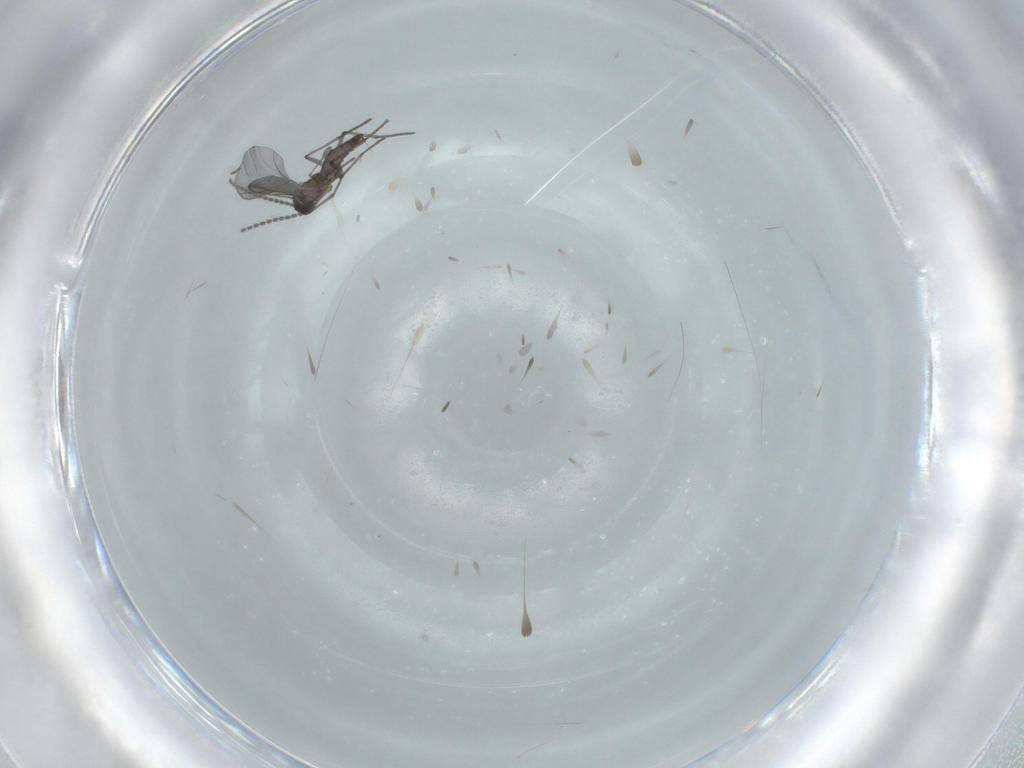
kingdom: Animalia
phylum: Arthropoda
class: Insecta
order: Diptera
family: Ceratopogonidae
